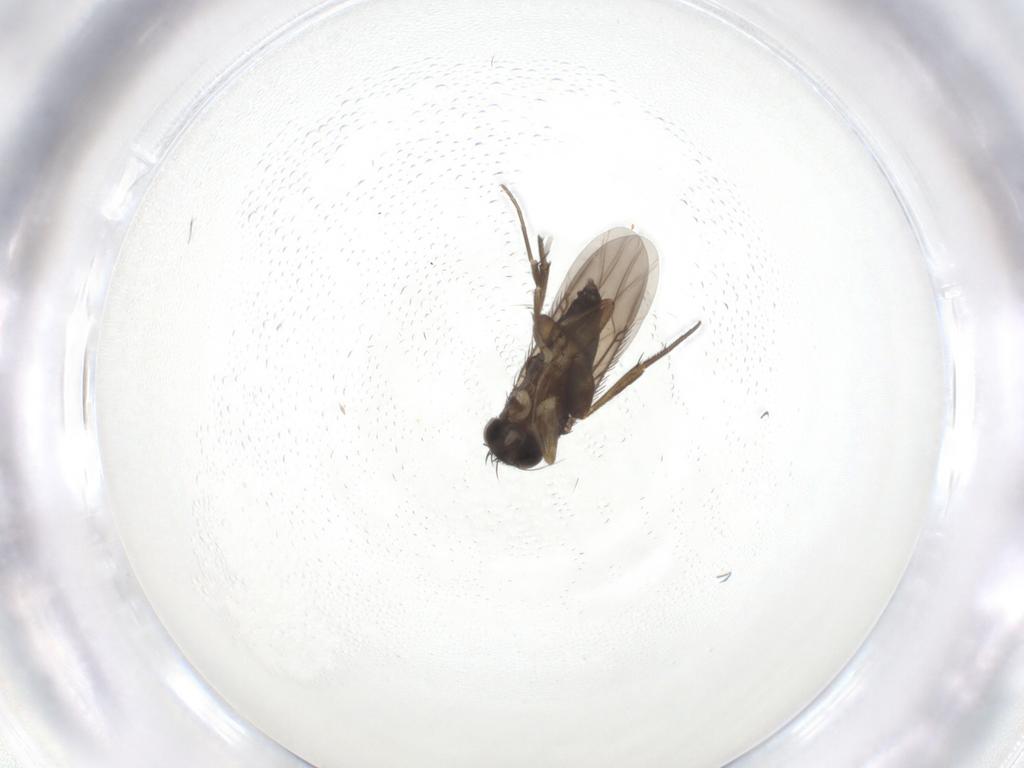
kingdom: Animalia
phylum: Arthropoda
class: Insecta
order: Diptera
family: Phoridae
